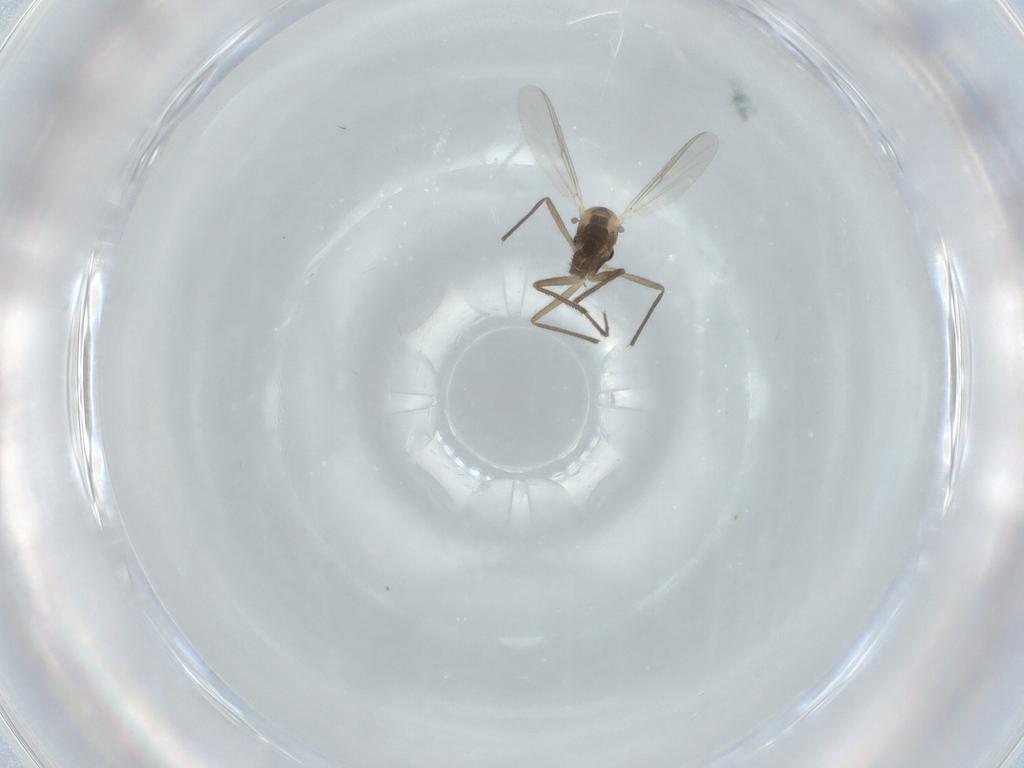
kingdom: Animalia
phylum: Arthropoda
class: Insecta
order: Diptera
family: Chironomidae
